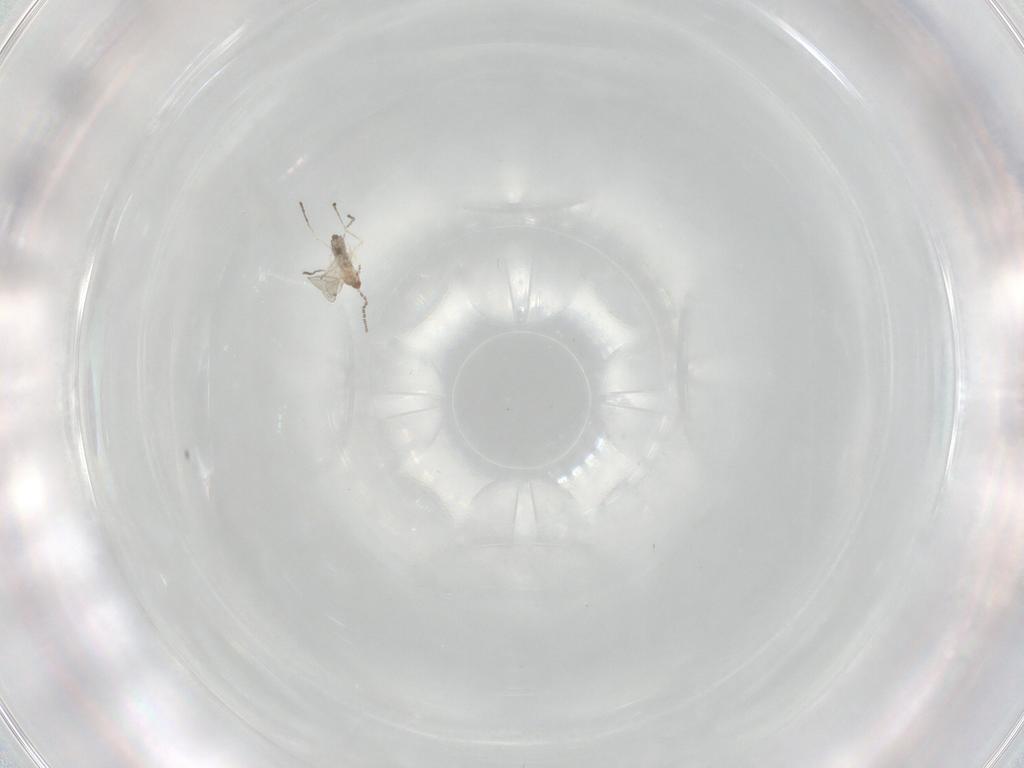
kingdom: Animalia
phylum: Arthropoda
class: Insecta
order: Diptera
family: Cecidomyiidae
